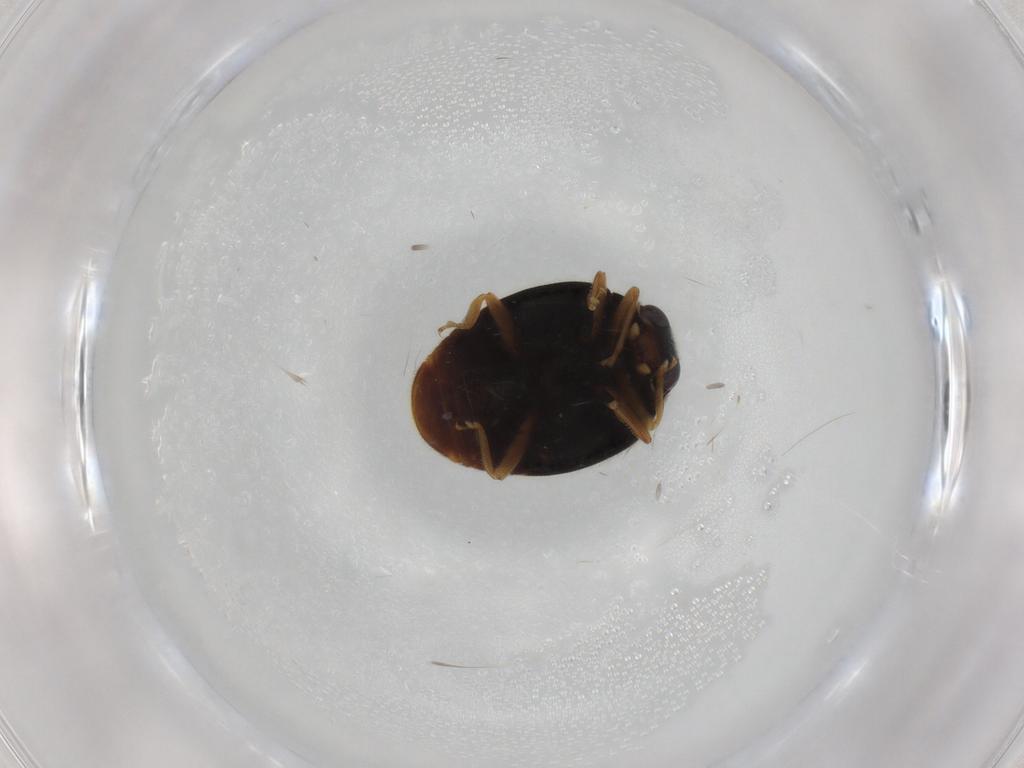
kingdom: Animalia
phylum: Arthropoda
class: Insecta
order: Coleoptera
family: Coccinellidae
